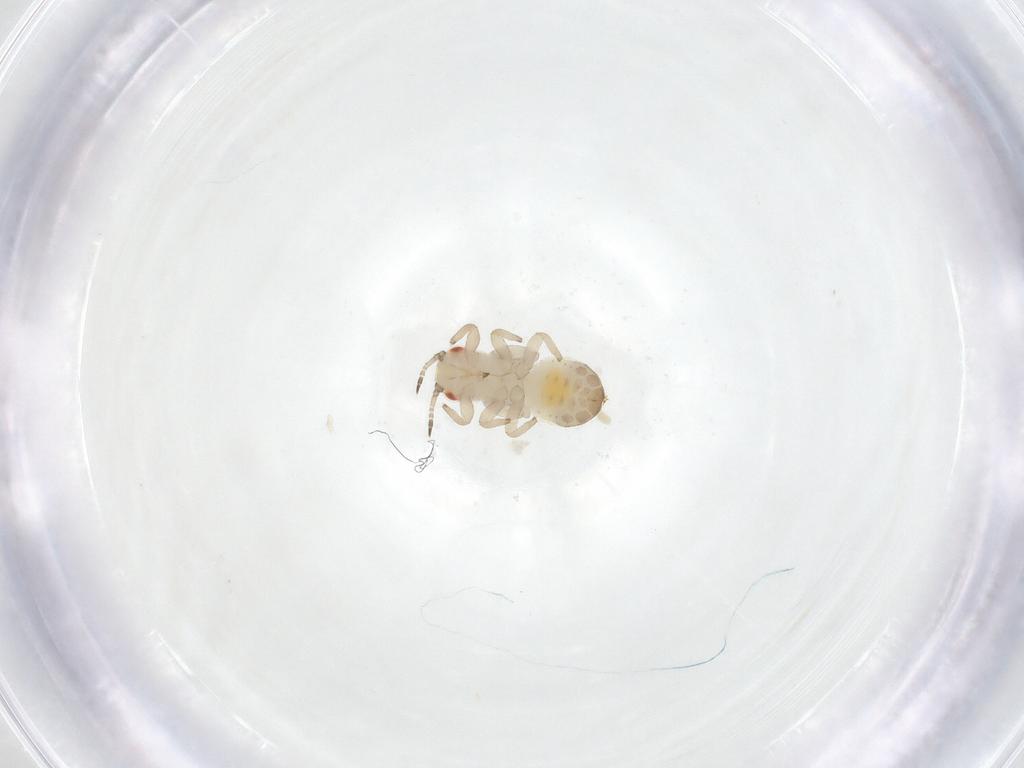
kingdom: Animalia
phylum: Arthropoda
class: Insecta
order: Hemiptera
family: Aphalaridae
